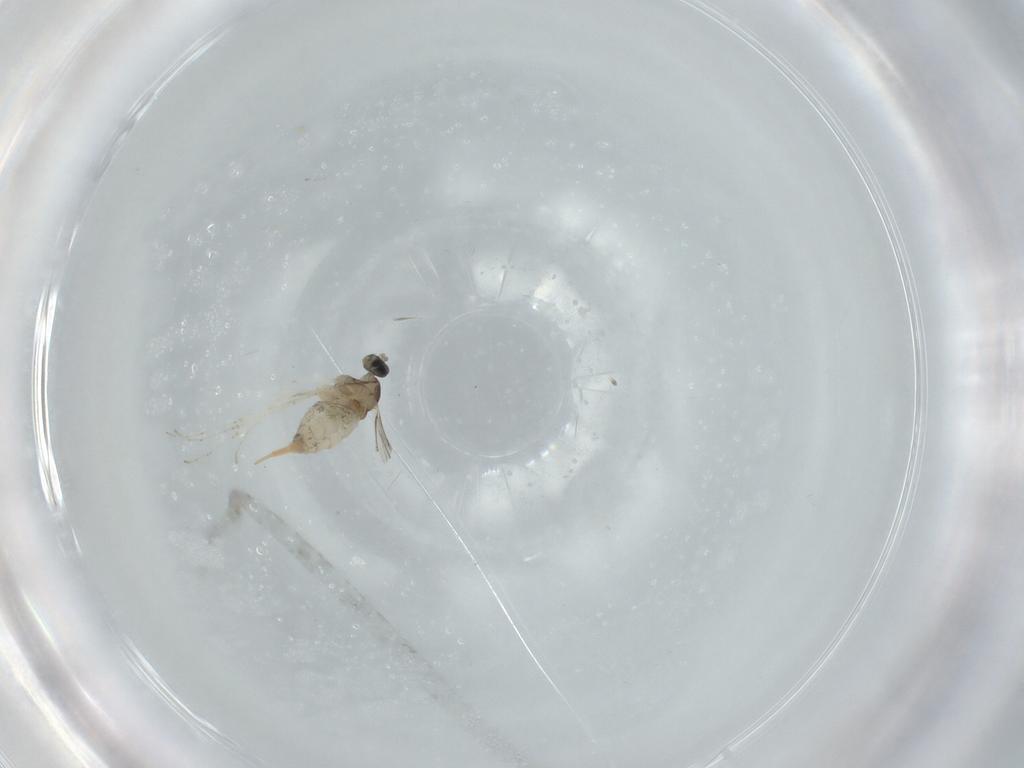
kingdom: Animalia
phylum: Arthropoda
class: Insecta
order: Diptera
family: Cecidomyiidae
